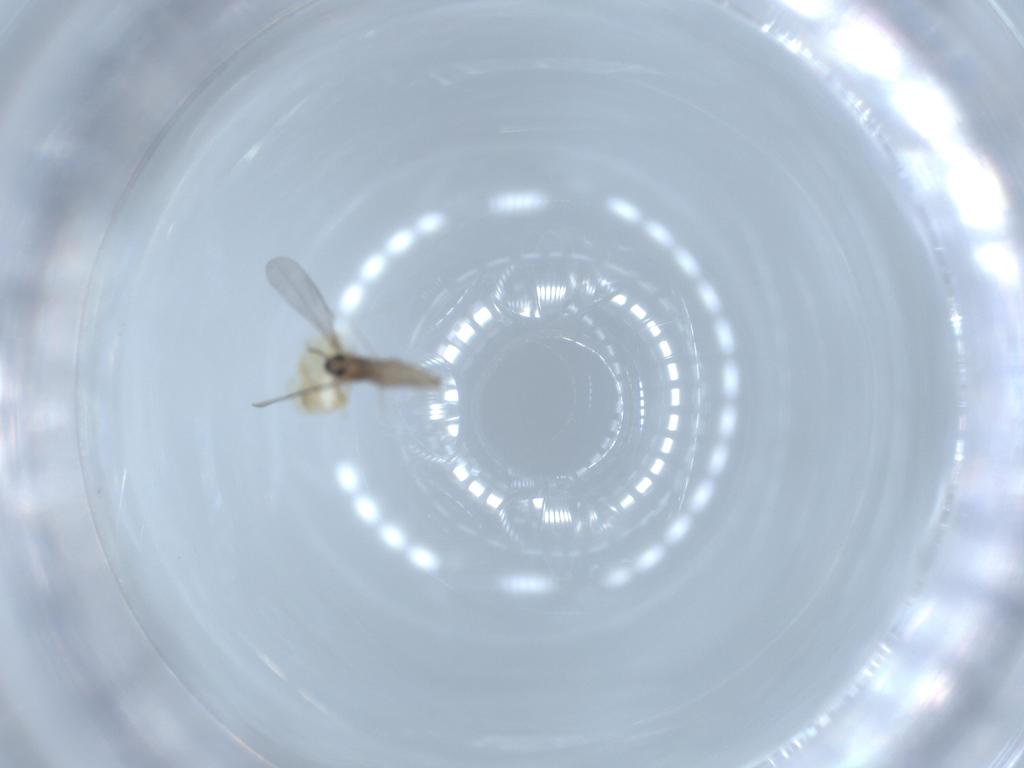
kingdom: Animalia
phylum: Arthropoda
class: Insecta
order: Diptera
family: Cecidomyiidae
